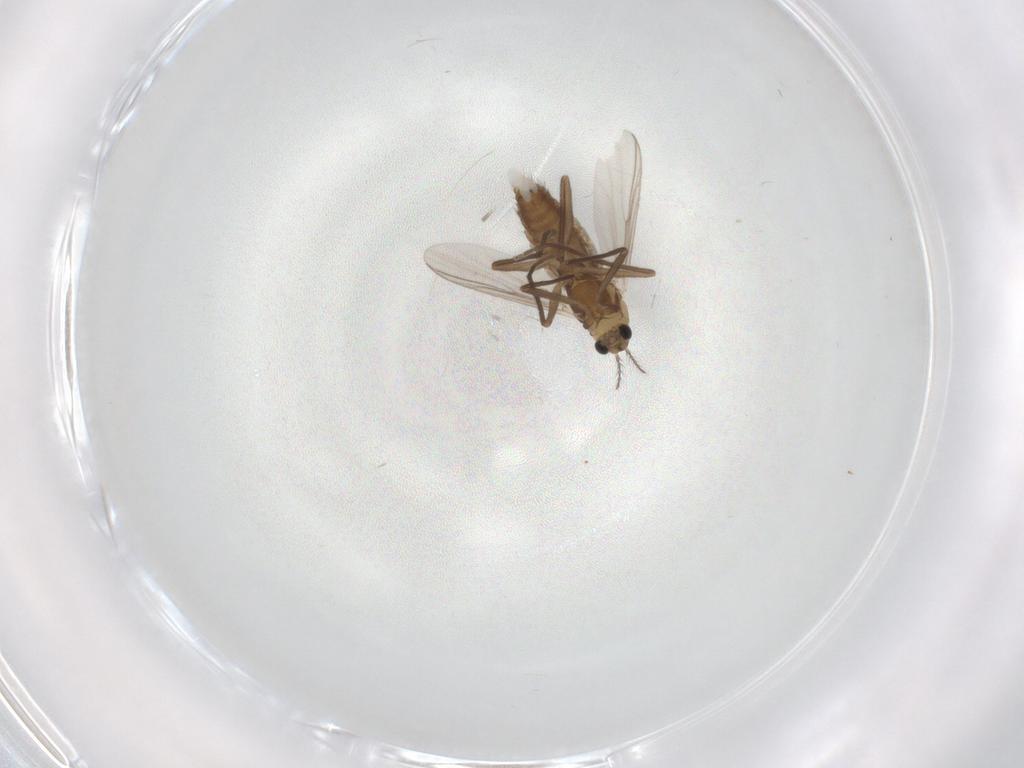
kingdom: Animalia
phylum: Arthropoda
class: Insecta
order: Diptera
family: Chironomidae
